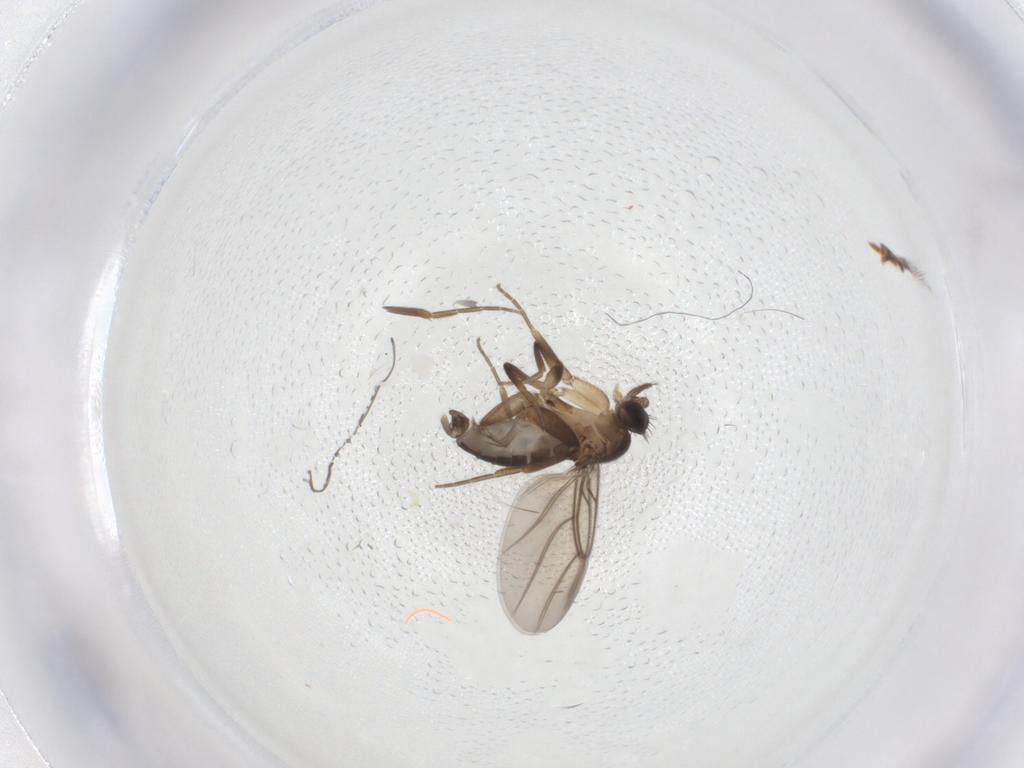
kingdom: Animalia
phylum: Arthropoda
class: Insecta
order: Diptera
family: Phoridae
